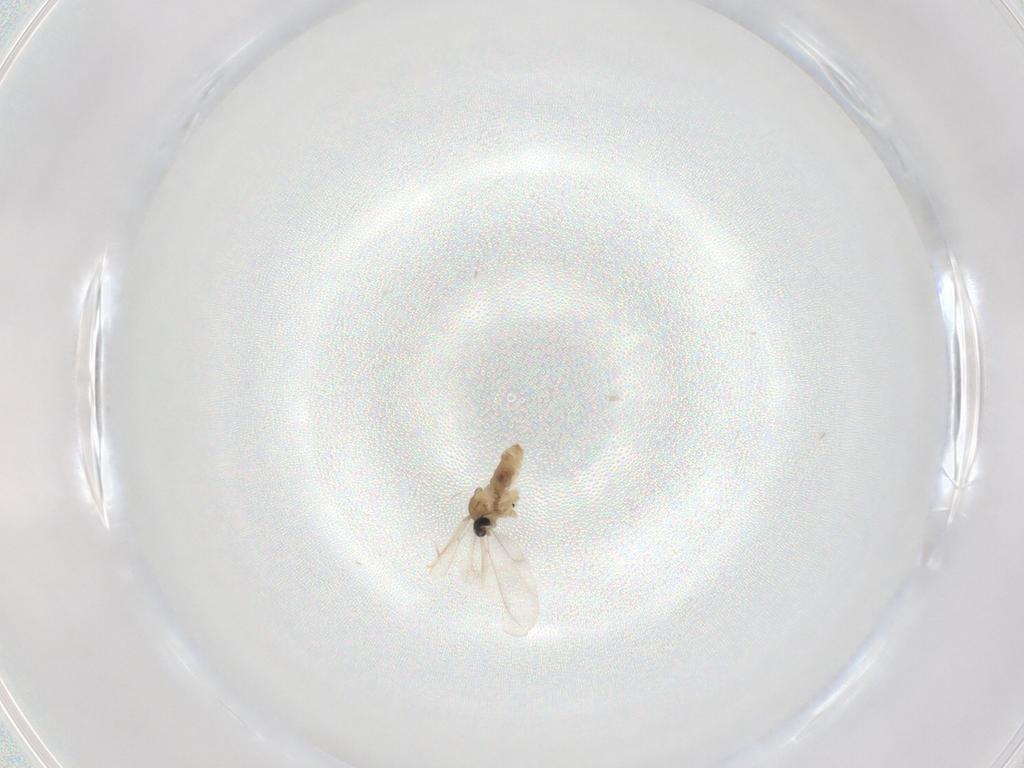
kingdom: Animalia
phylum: Arthropoda
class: Insecta
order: Diptera
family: Cecidomyiidae
